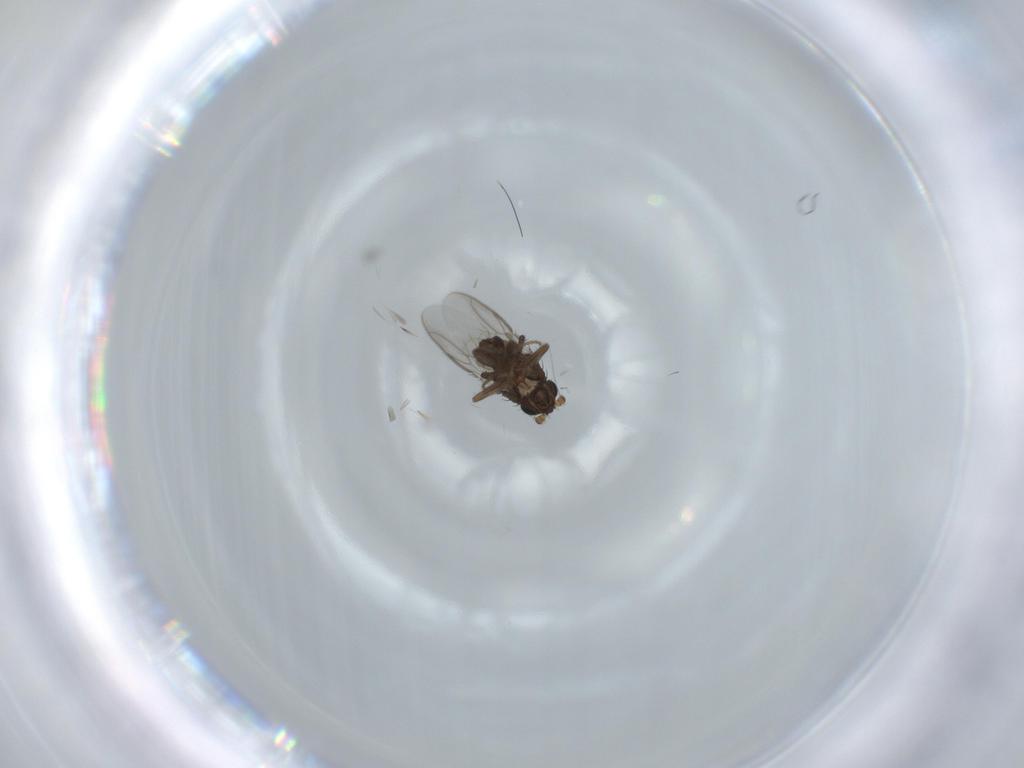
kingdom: Animalia
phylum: Arthropoda
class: Insecta
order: Diptera
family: Sphaeroceridae
